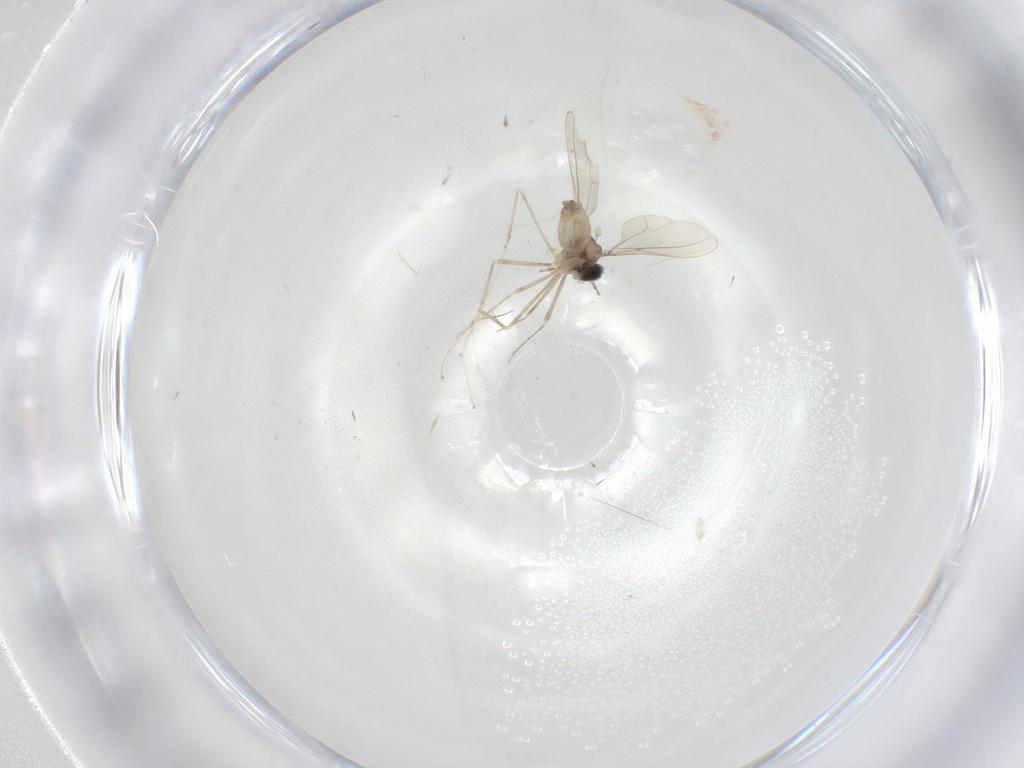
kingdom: Animalia
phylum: Arthropoda
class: Insecta
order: Diptera
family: Cecidomyiidae
